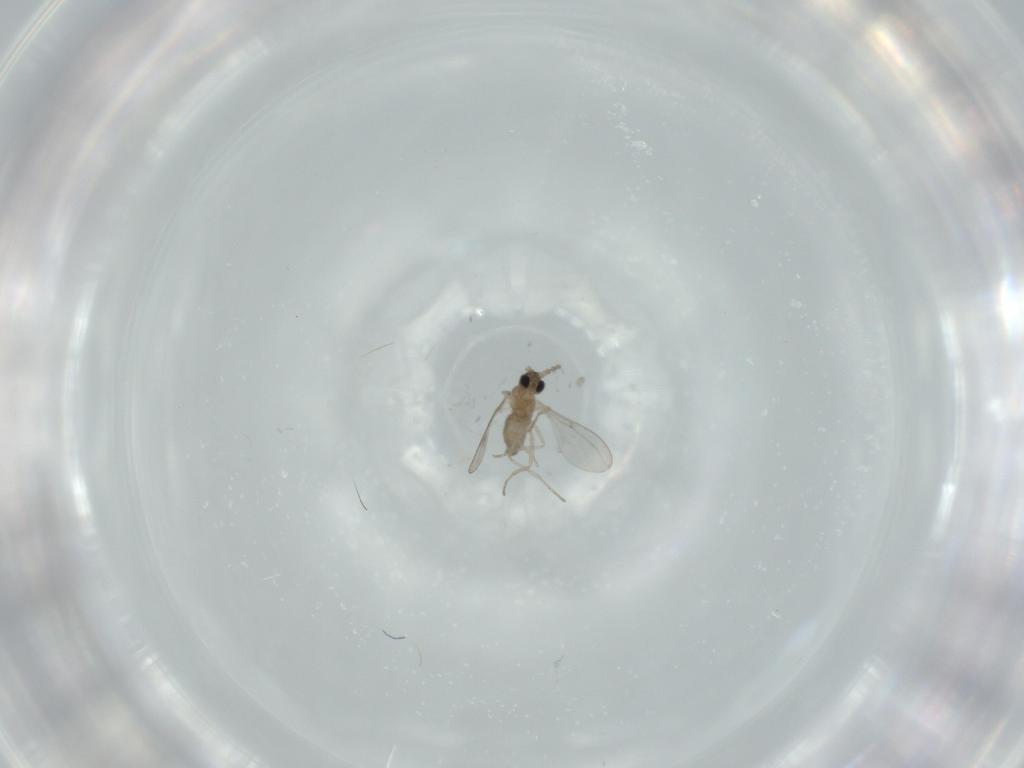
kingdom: Animalia
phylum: Arthropoda
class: Insecta
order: Diptera
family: Cecidomyiidae
